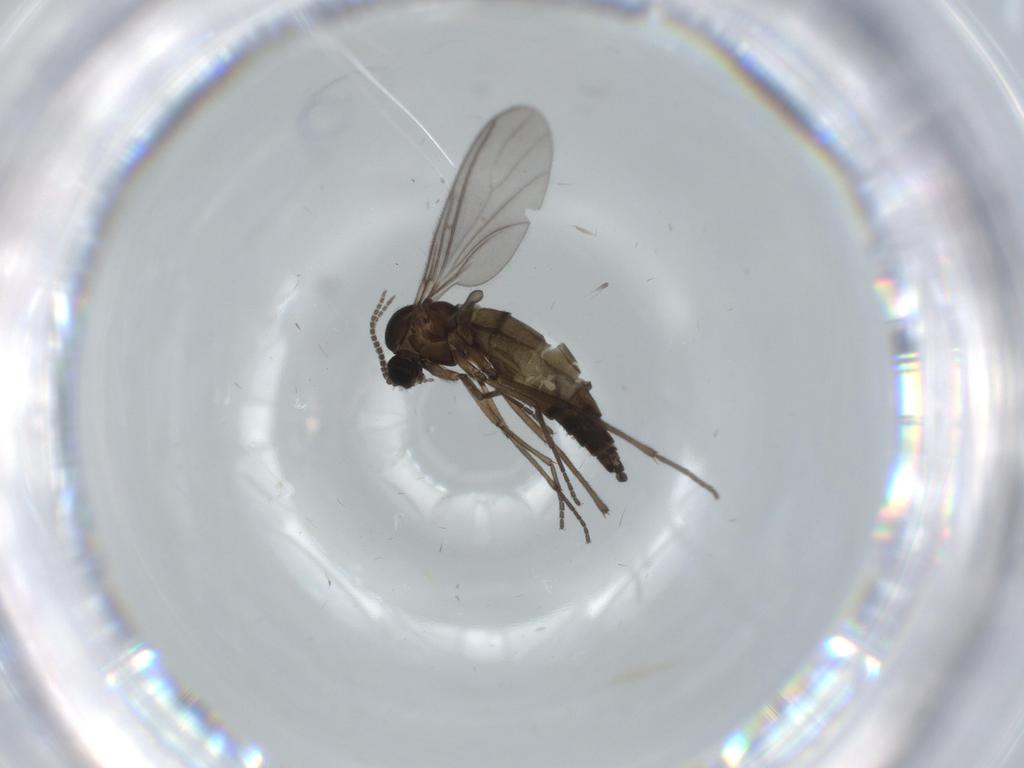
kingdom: Animalia
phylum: Arthropoda
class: Insecta
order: Diptera
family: Sciaridae
